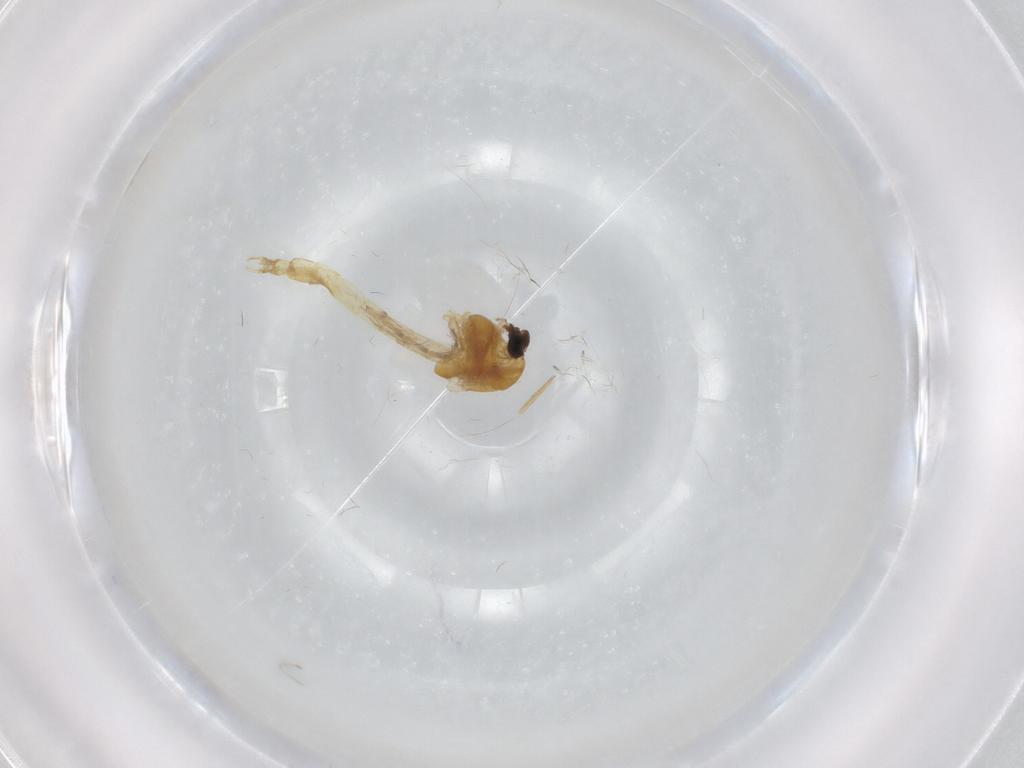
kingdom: Animalia
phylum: Arthropoda
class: Insecta
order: Diptera
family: Chironomidae
